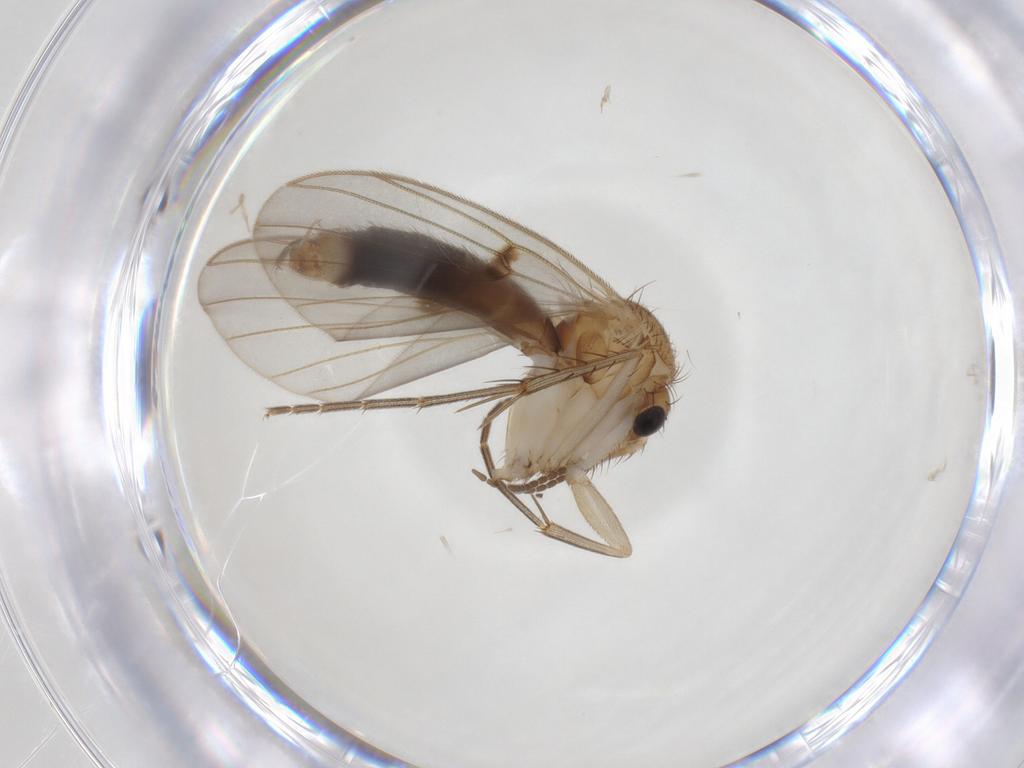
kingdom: Animalia
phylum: Arthropoda
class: Insecta
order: Diptera
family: Mycetophilidae
